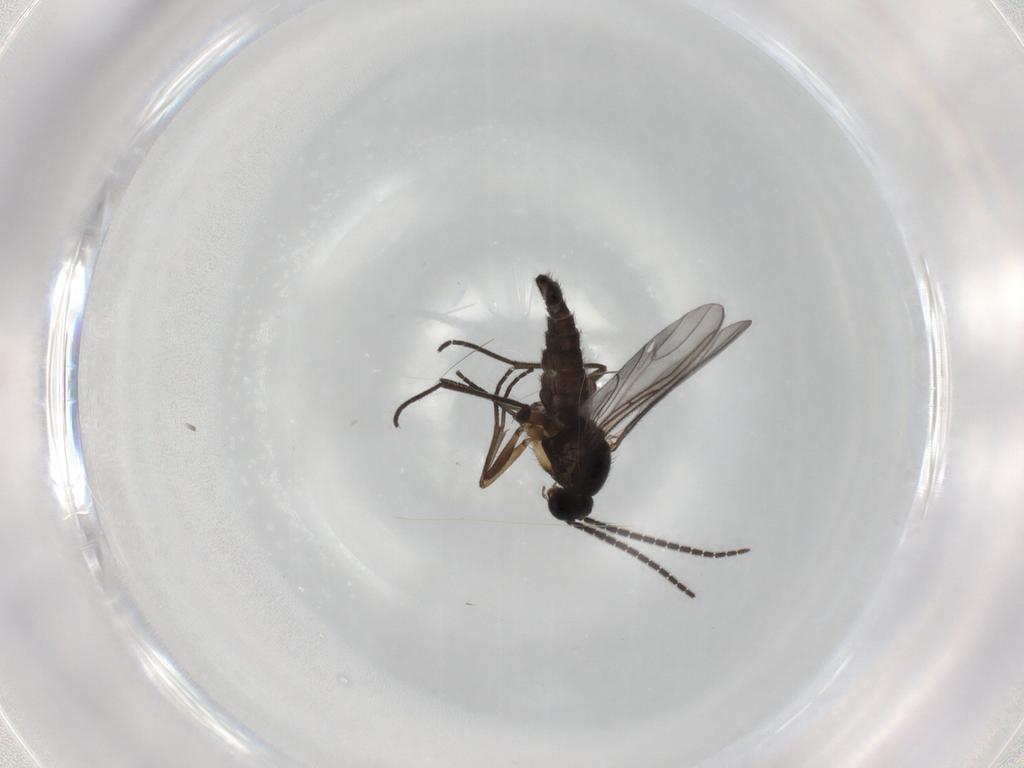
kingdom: Animalia
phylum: Arthropoda
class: Insecta
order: Diptera
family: Sciaridae
